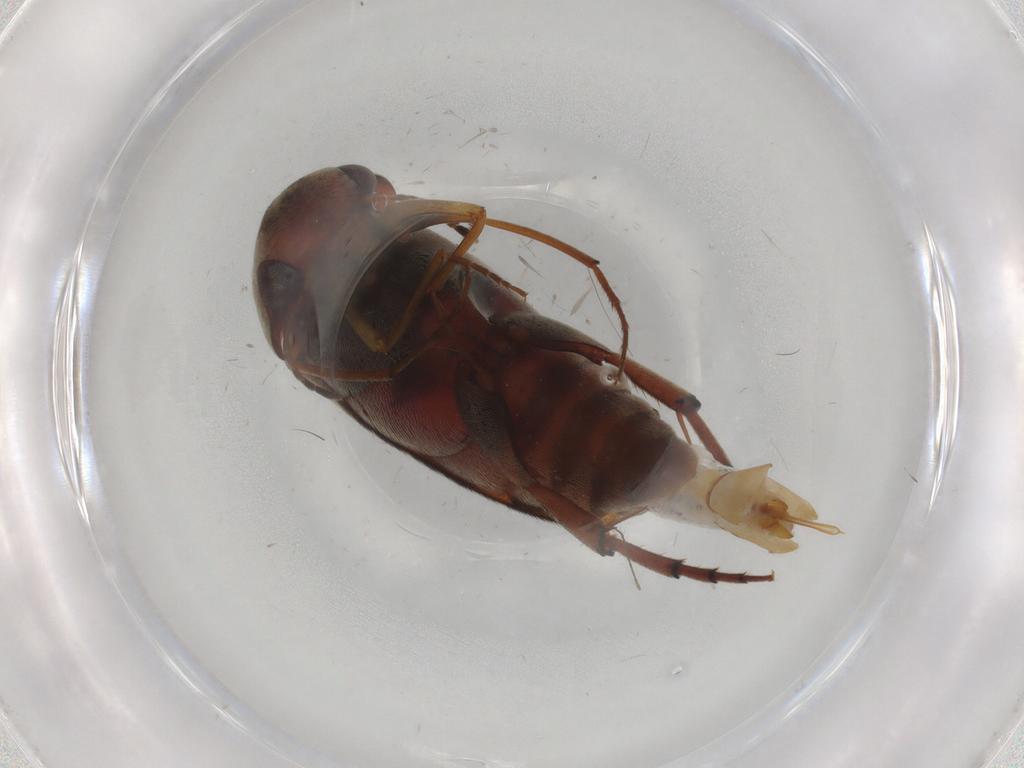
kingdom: Animalia
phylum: Arthropoda
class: Insecta
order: Coleoptera
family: Mordellidae
